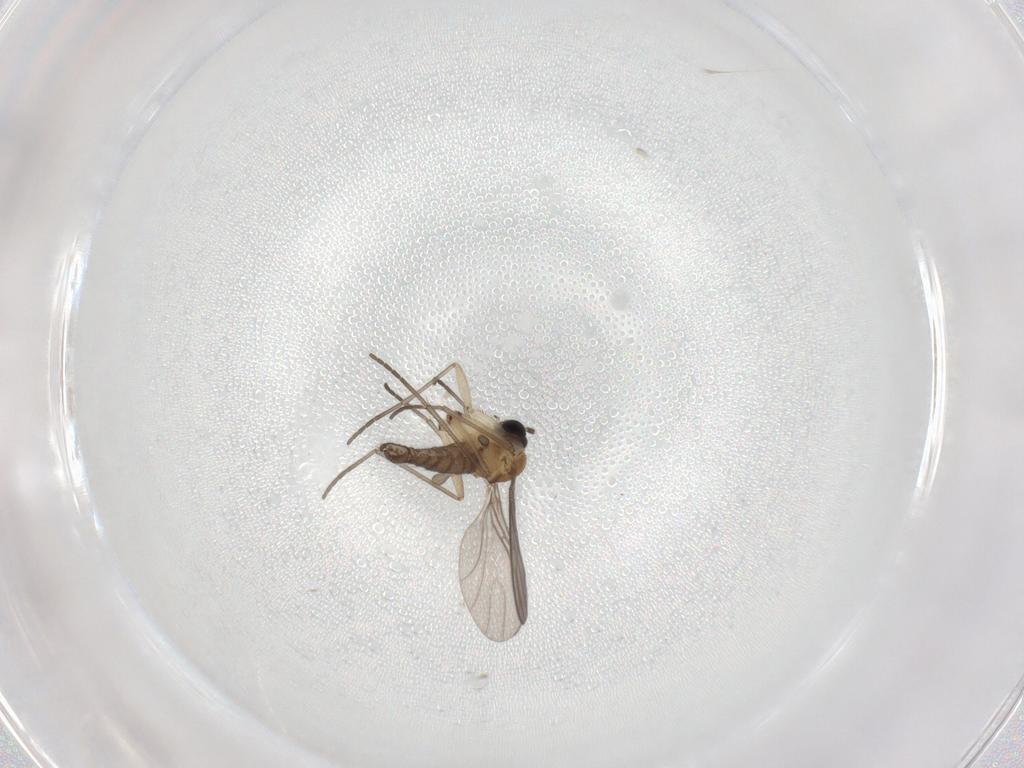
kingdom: Animalia
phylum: Arthropoda
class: Insecta
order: Diptera
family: Sciaridae
